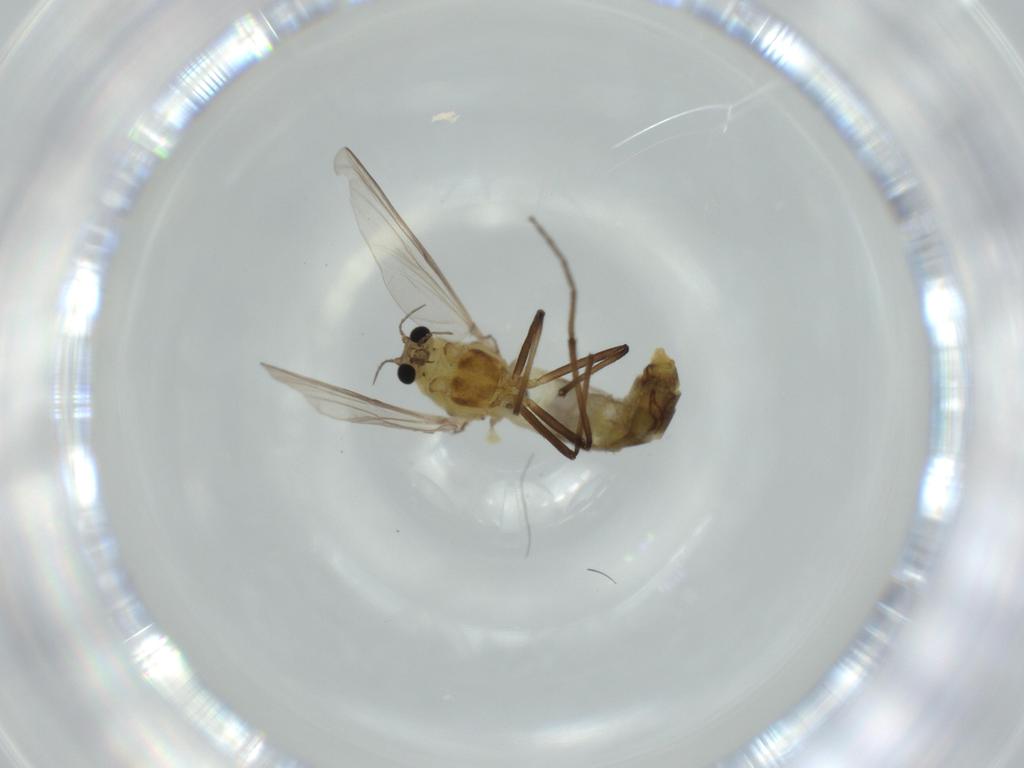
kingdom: Animalia
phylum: Arthropoda
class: Insecta
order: Diptera
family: Chironomidae
